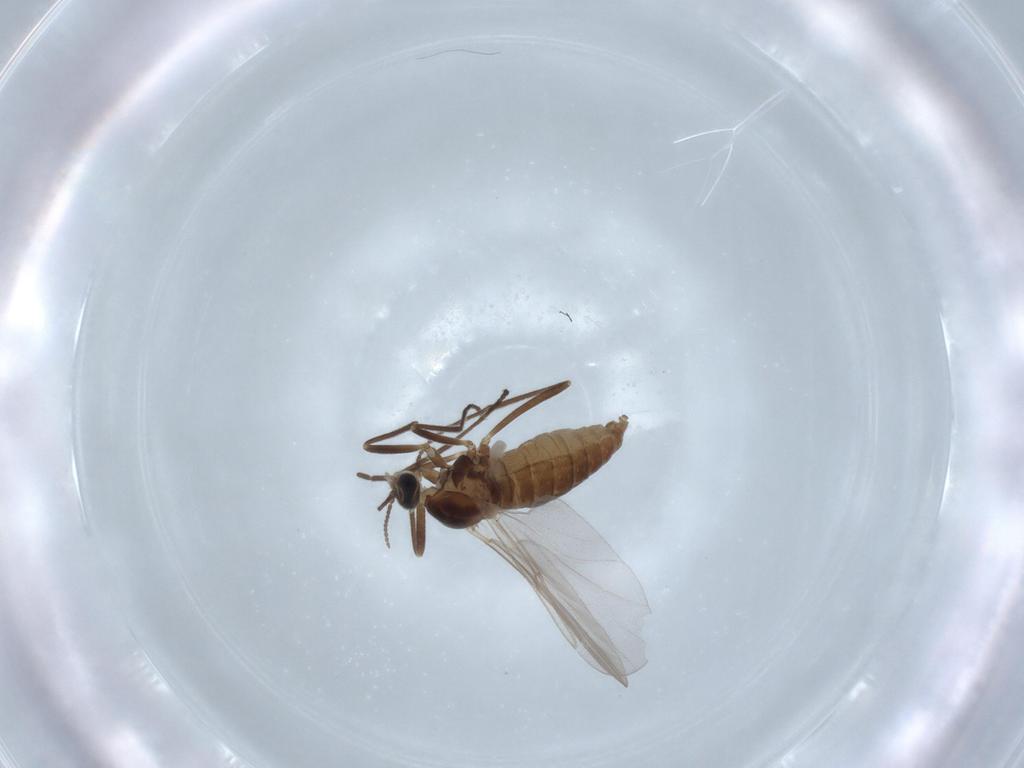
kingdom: Animalia
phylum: Arthropoda
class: Insecta
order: Diptera
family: Cecidomyiidae
